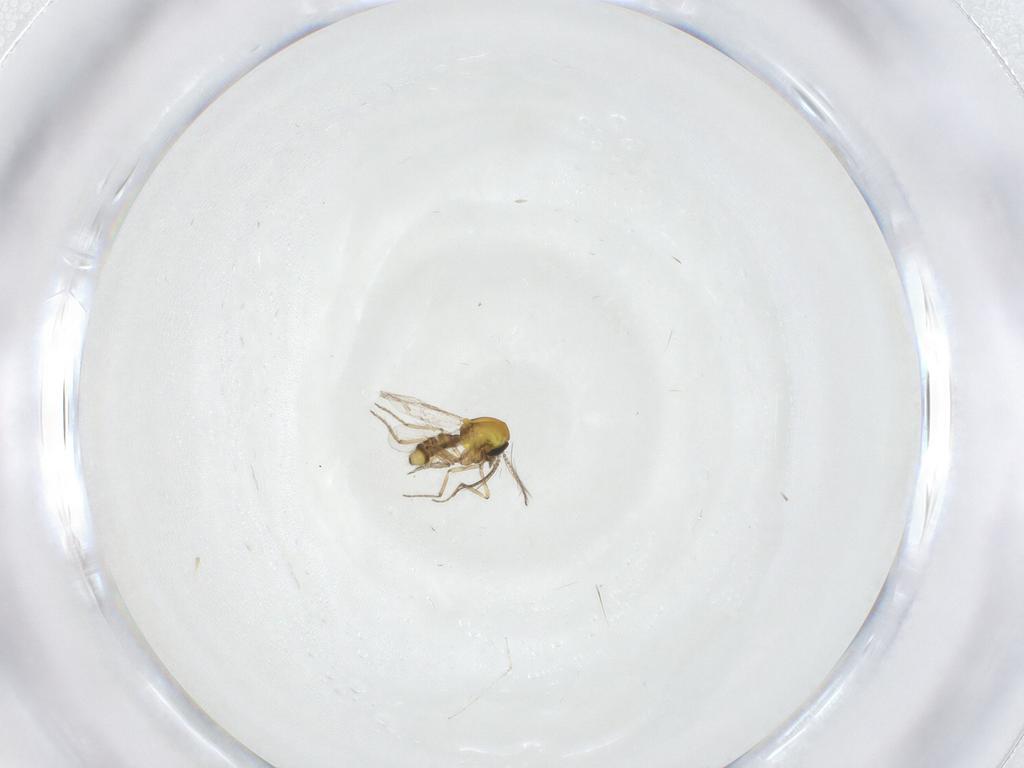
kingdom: Animalia
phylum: Arthropoda
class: Insecta
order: Diptera
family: Ceratopogonidae
